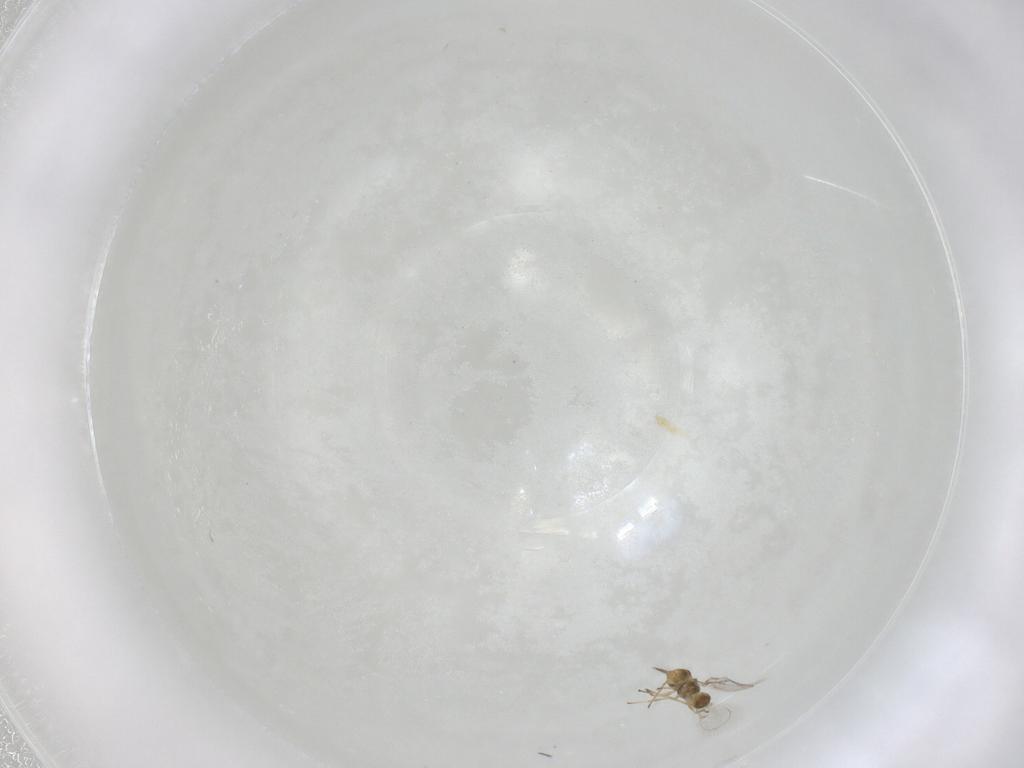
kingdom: Animalia
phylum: Arthropoda
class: Insecta
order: Hymenoptera
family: Eulophidae
